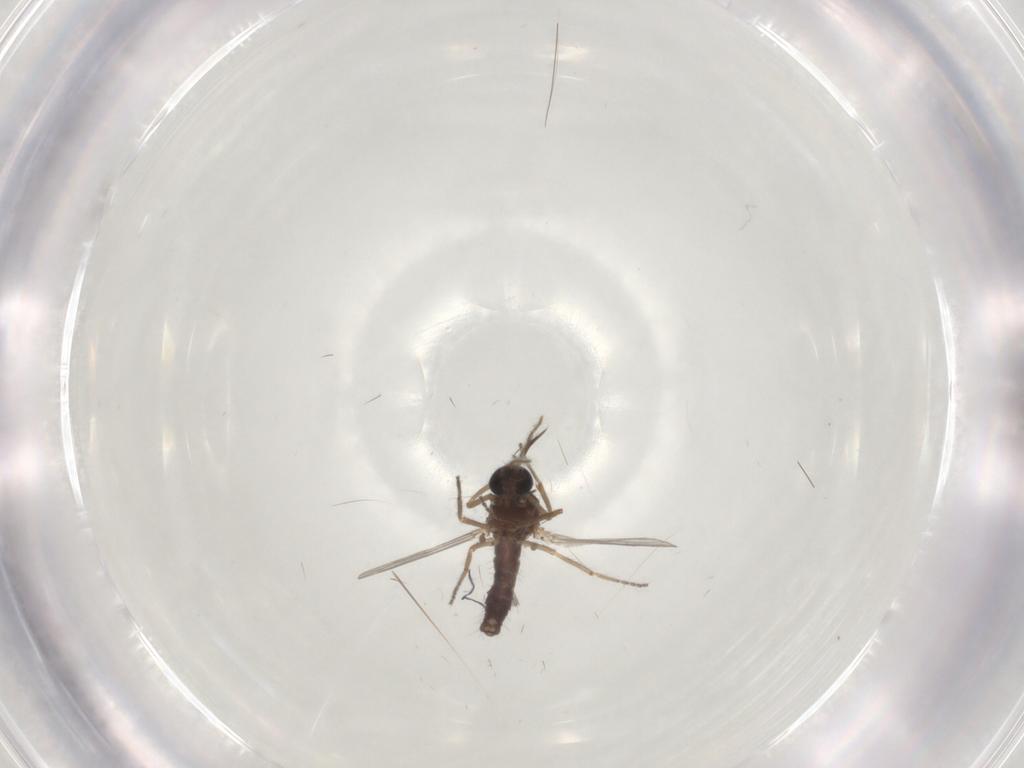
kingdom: Animalia
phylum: Arthropoda
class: Insecta
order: Diptera
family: Ceratopogonidae
